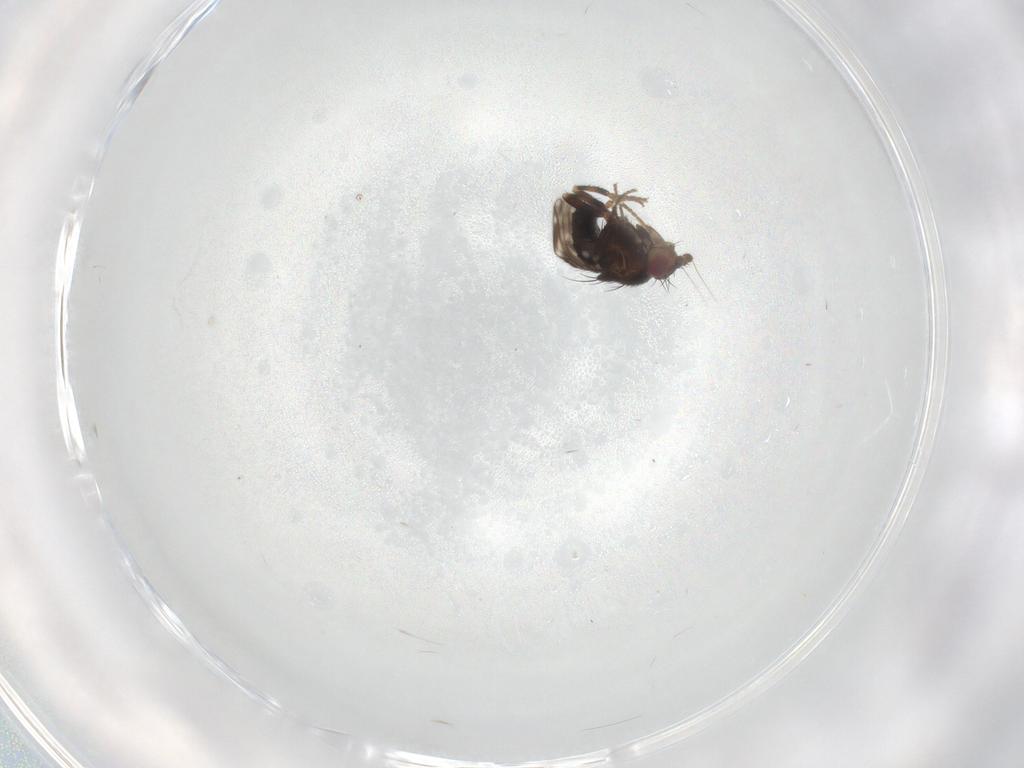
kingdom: Animalia
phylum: Arthropoda
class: Insecta
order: Diptera
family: Sphaeroceridae
